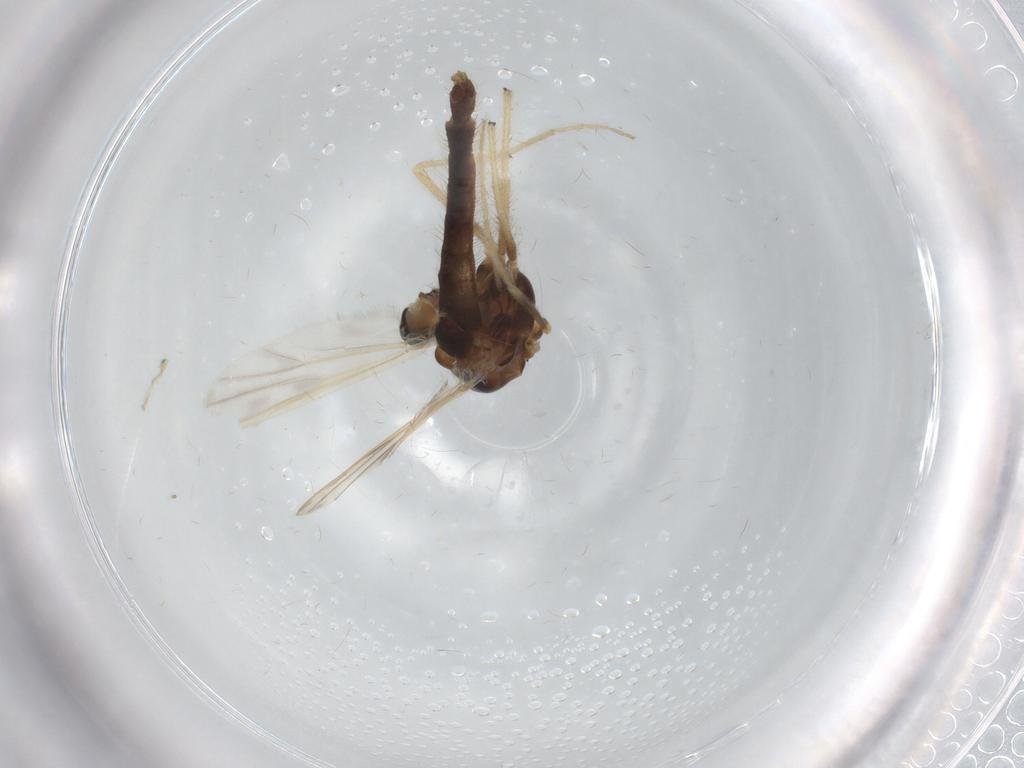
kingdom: Animalia
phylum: Arthropoda
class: Insecta
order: Diptera
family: Chironomidae
